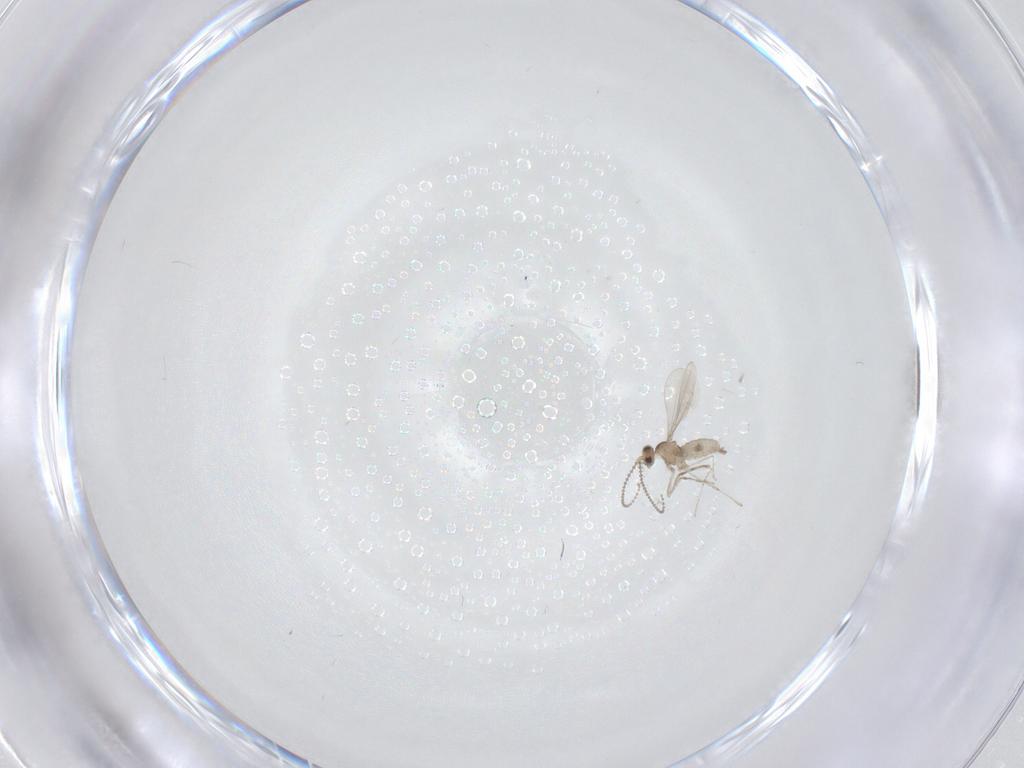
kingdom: Animalia
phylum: Arthropoda
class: Insecta
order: Diptera
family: Cecidomyiidae
